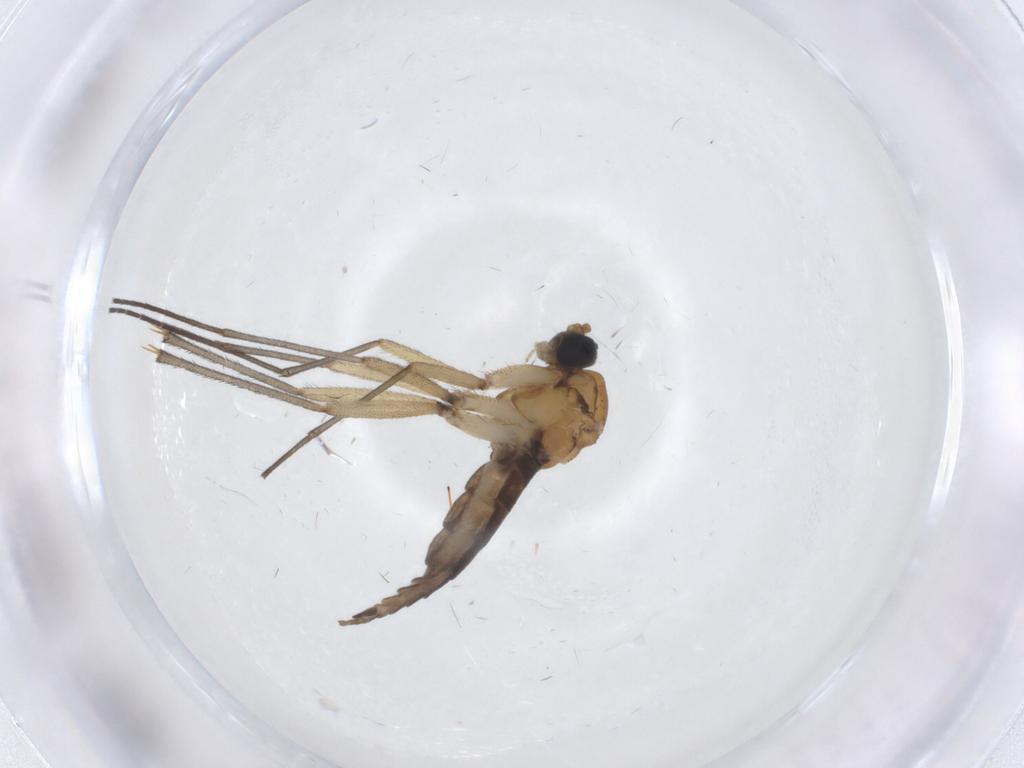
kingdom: Animalia
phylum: Arthropoda
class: Insecta
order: Diptera
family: Sciaridae
